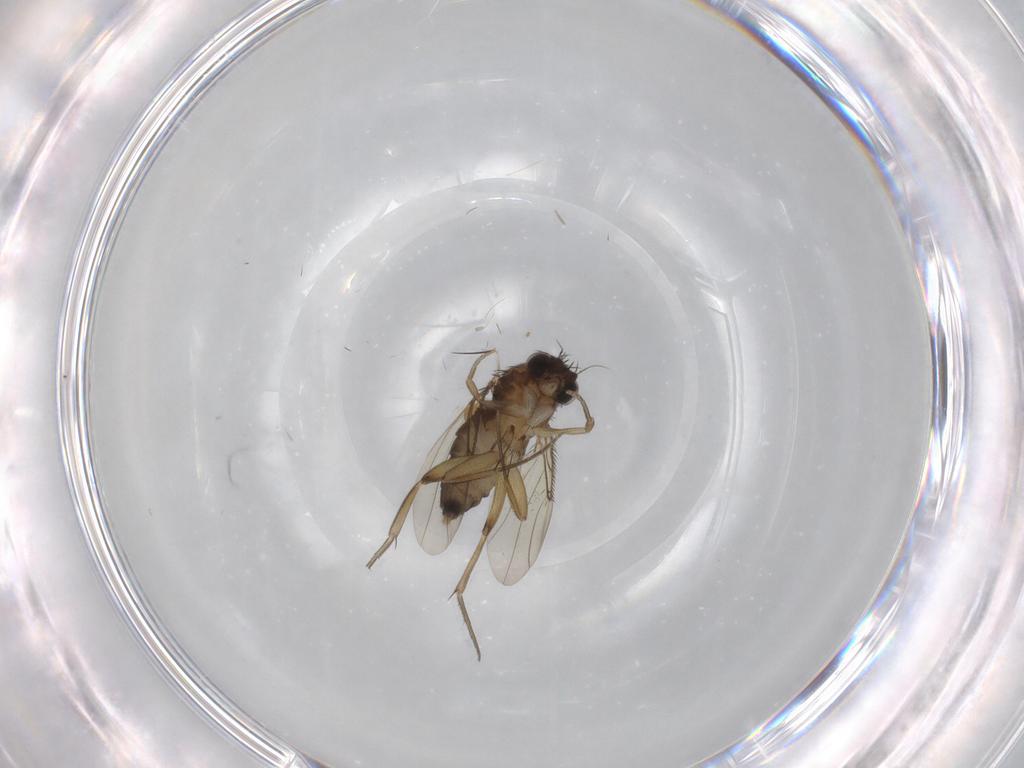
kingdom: Animalia
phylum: Arthropoda
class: Insecta
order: Diptera
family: Phoridae
